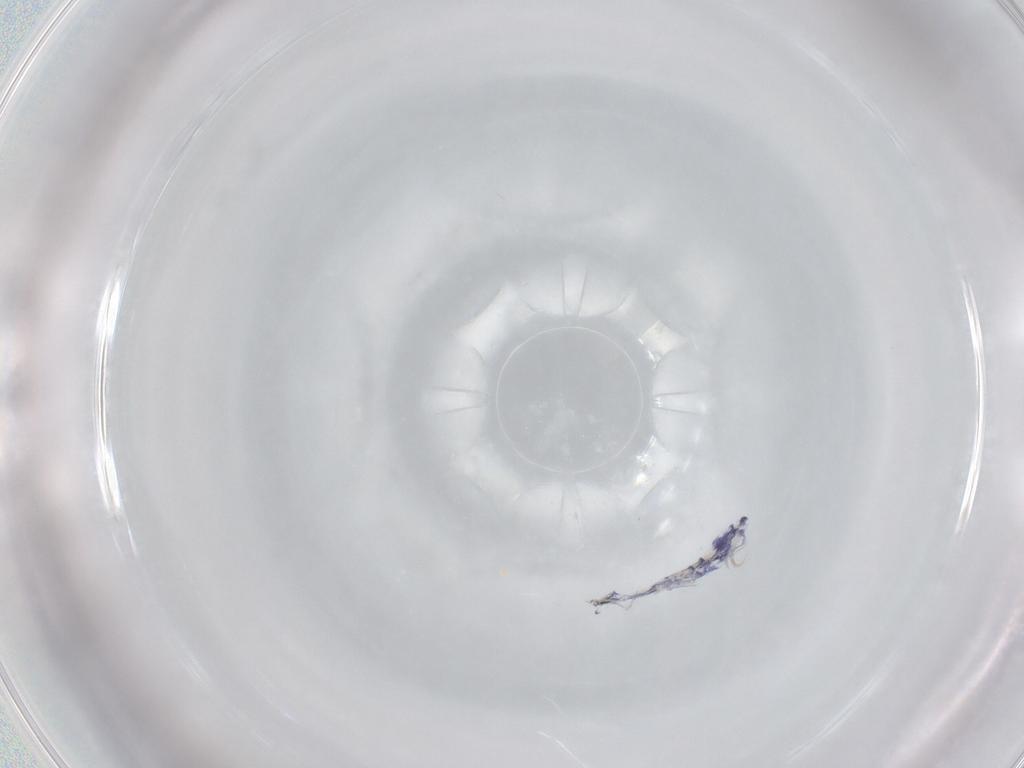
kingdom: Animalia
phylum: Arthropoda
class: Collembola
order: Entomobryomorpha
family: Entomobryidae
